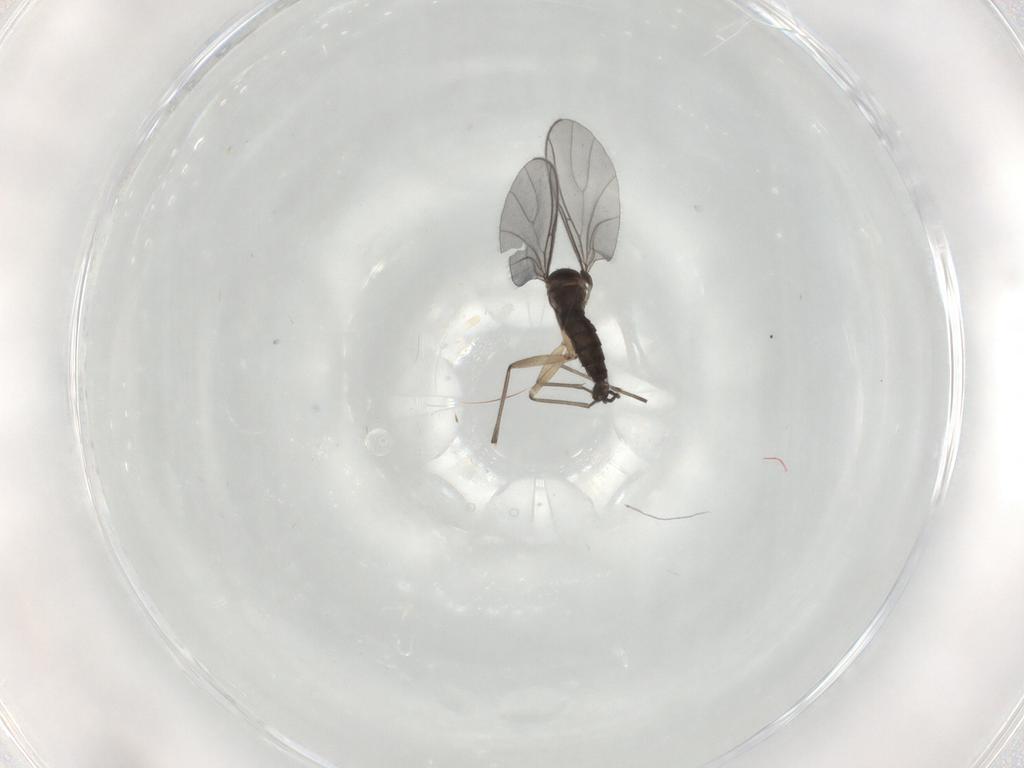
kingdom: Animalia
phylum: Arthropoda
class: Insecta
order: Diptera
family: Sciaridae
